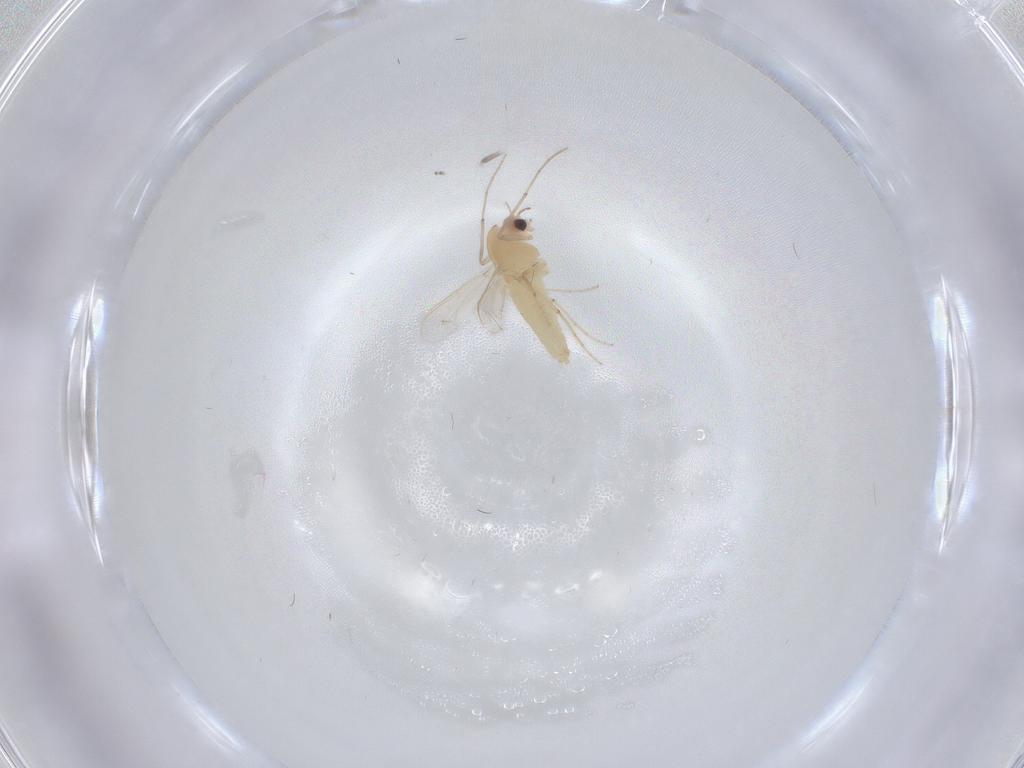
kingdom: Animalia
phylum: Arthropoda
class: Insecta
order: Diptera
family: Chironomidae
